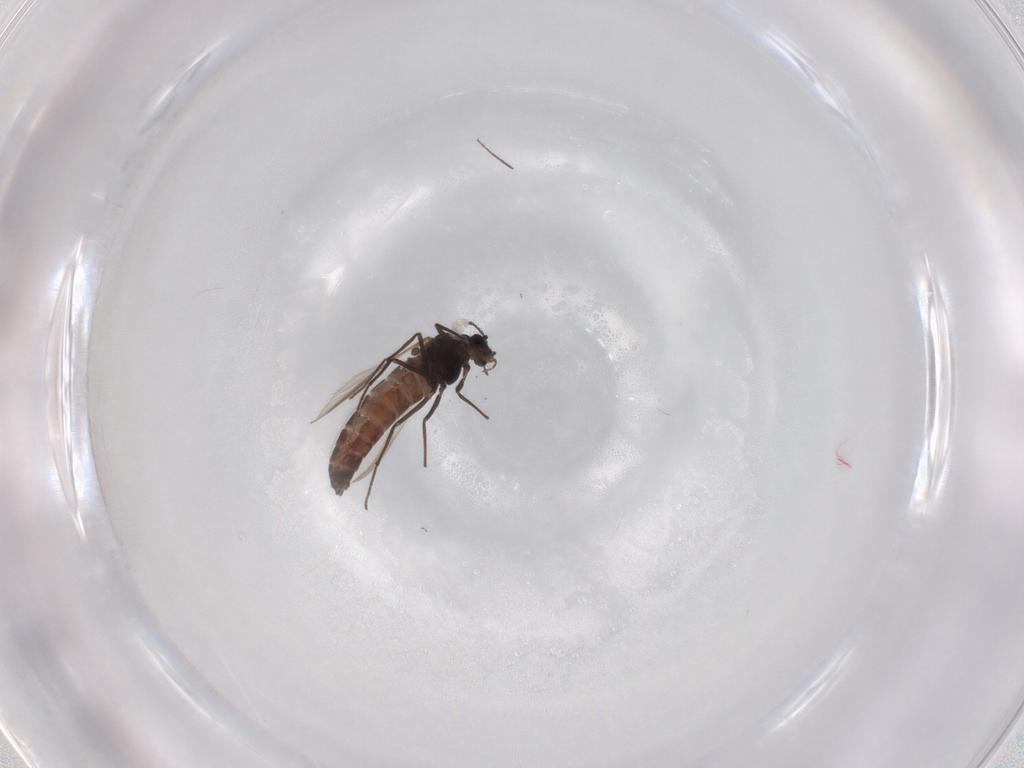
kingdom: Animalia
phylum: Arthropoda
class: Insecta
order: Diptera
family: Chironomidae
